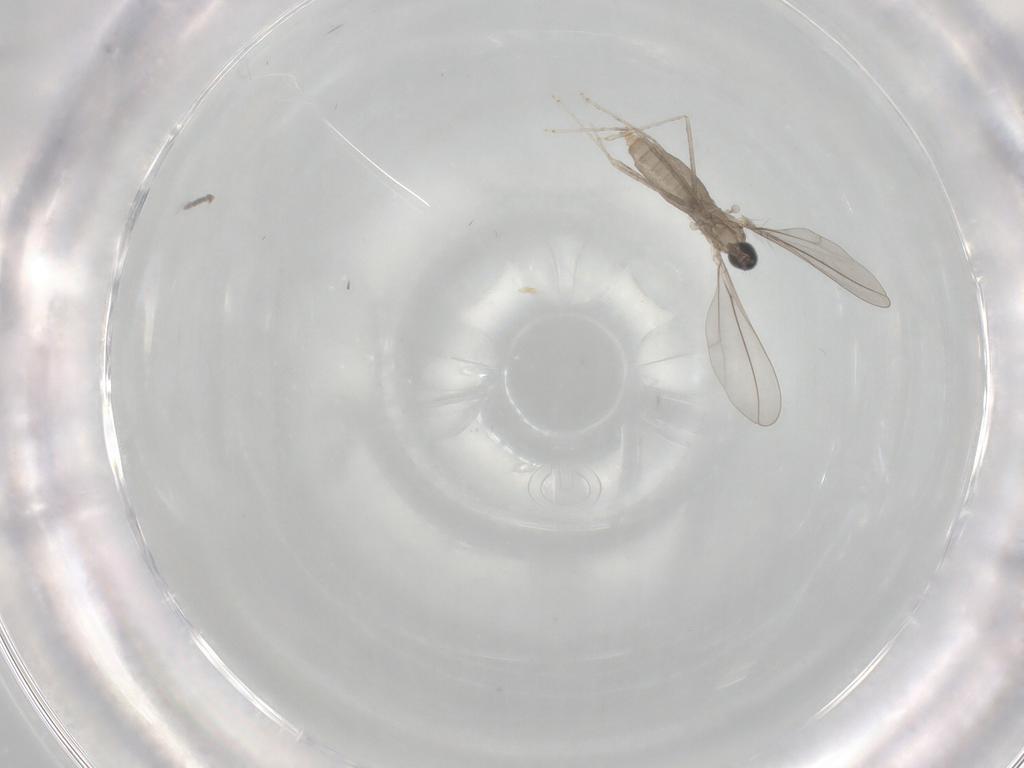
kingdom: Animalia
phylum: Arthropoda
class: Insecta
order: Diptera
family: Cecidomyiidae
